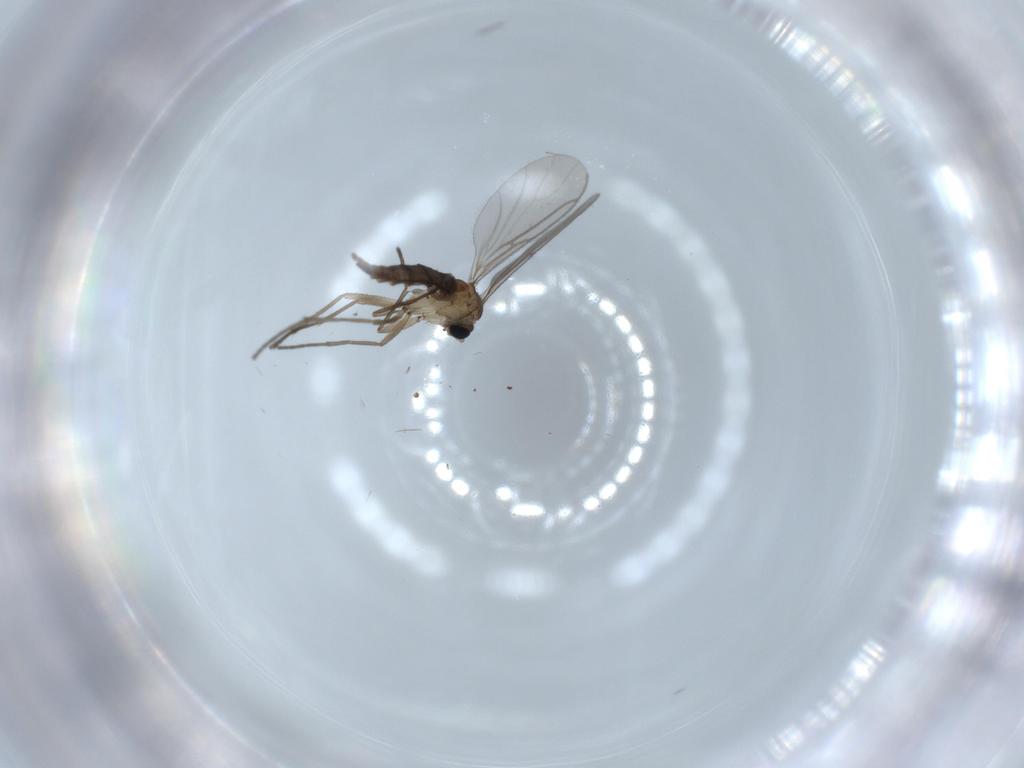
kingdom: Animalia
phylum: Arthropoda
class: Insecta
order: Diptera
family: Sciaridae
